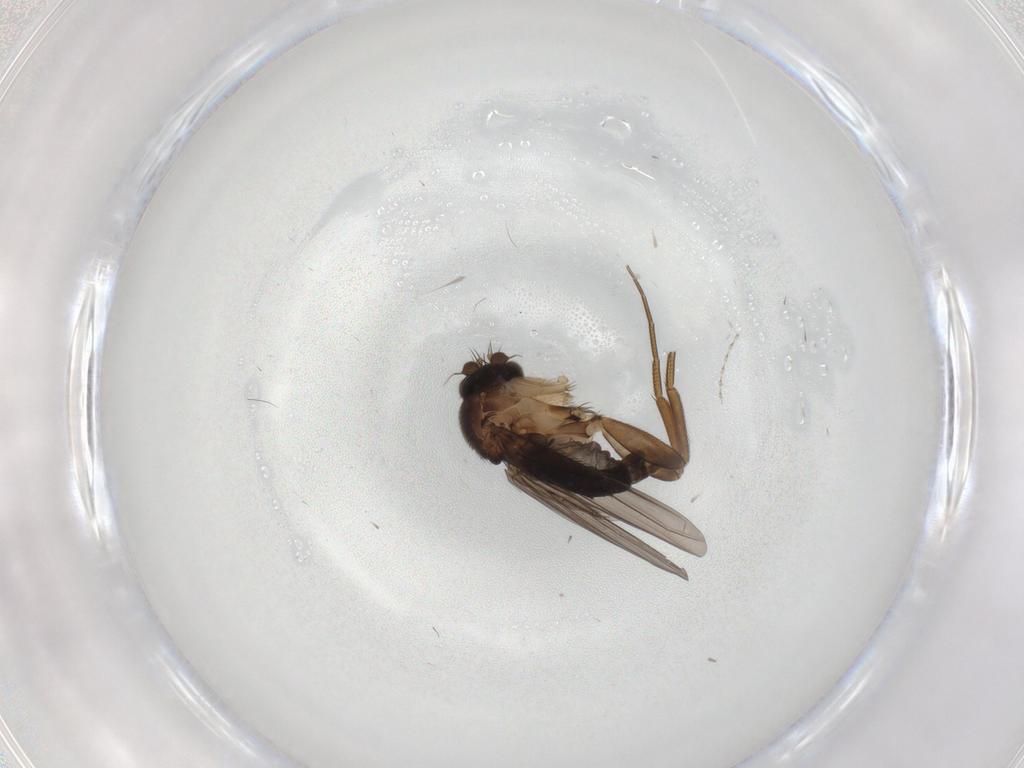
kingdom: Animalia
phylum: Arthropoda
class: Insecta
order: Diptera
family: Phoridae
